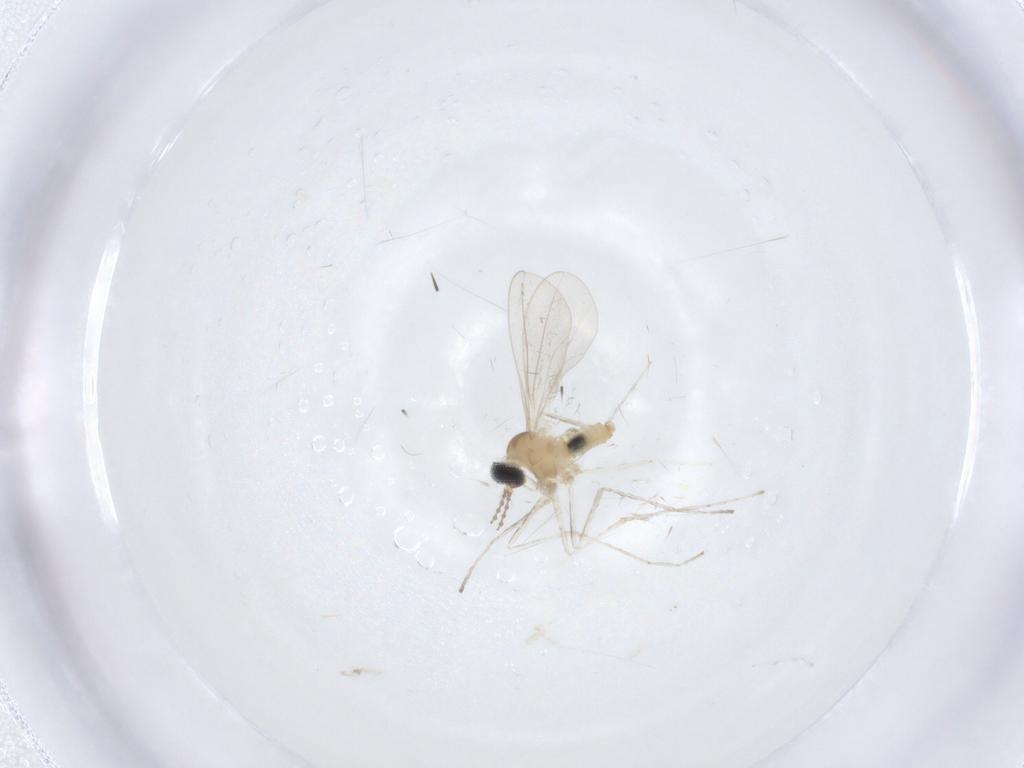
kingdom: Animalia
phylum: Arthropoda
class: Insecta
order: Diptera
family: Cecidomyiidae
